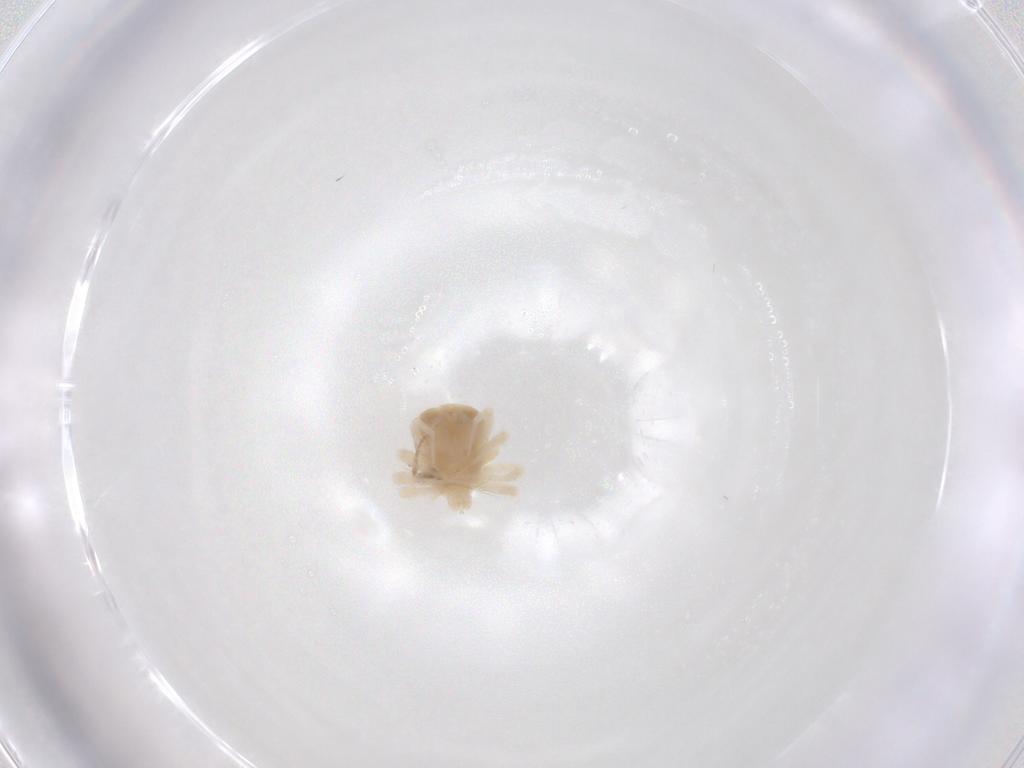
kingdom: Animalia
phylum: Arthropoda
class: Arachnida
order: Trombidiformes
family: Anystidae
